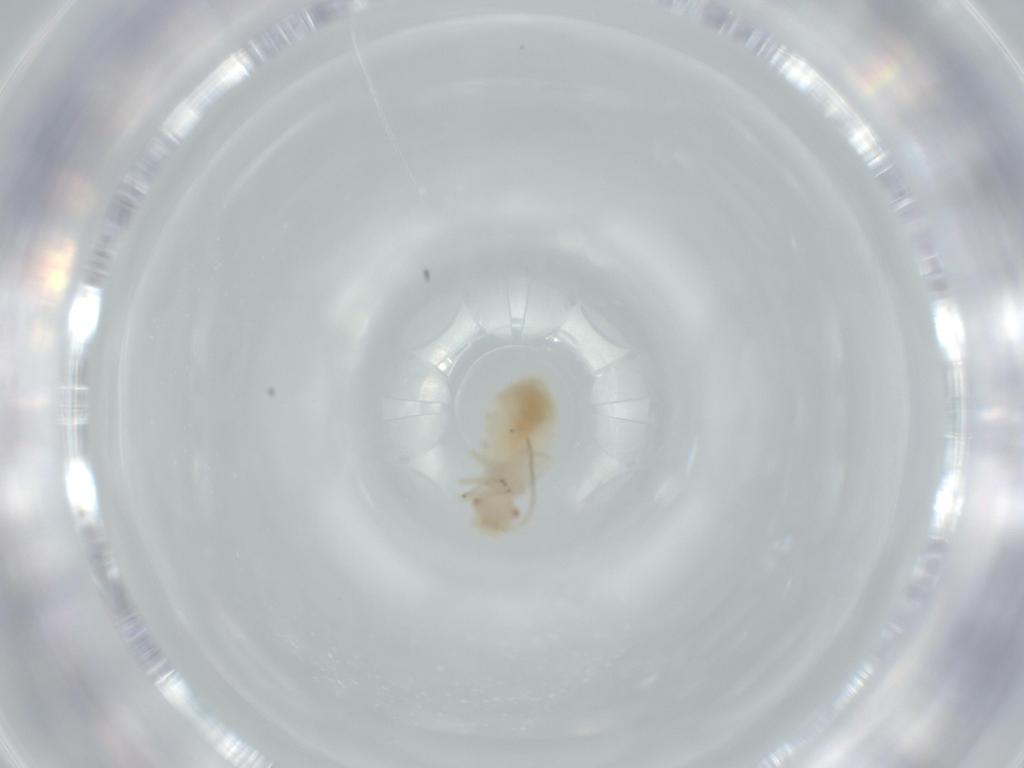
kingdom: Animalia
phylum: Arthropoda
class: Insecta
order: Psocodea
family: Caeciliusidae
